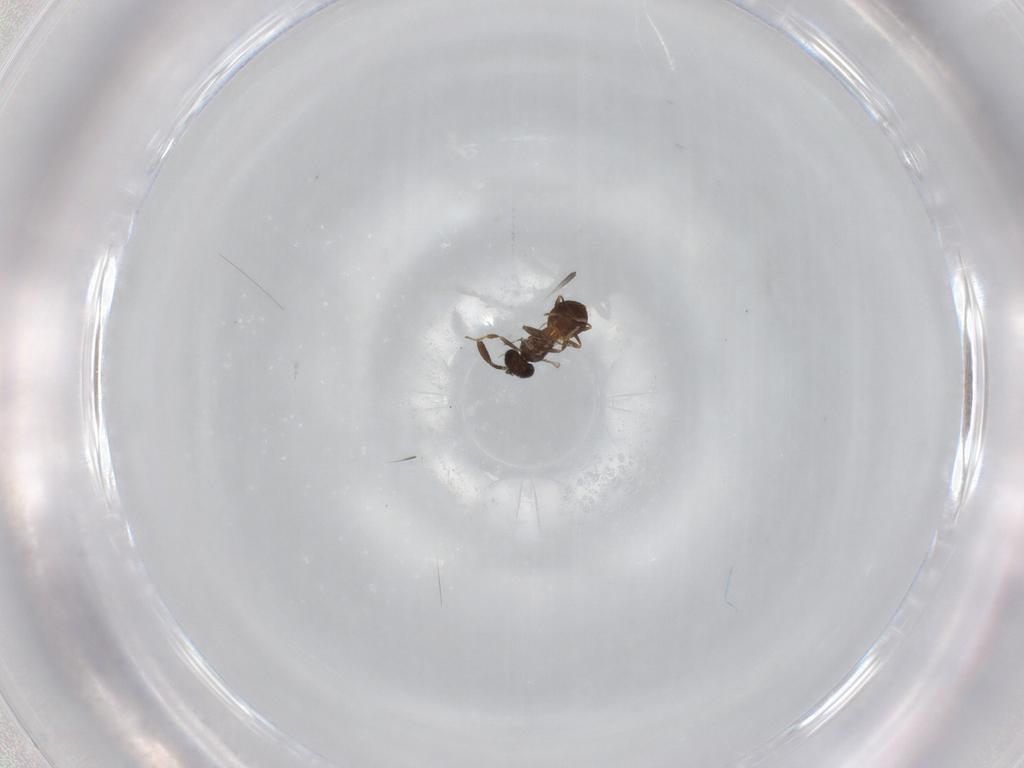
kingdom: Animalia
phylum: Arthropoda
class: Insecta
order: Hymenoptera
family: Scelionidae
